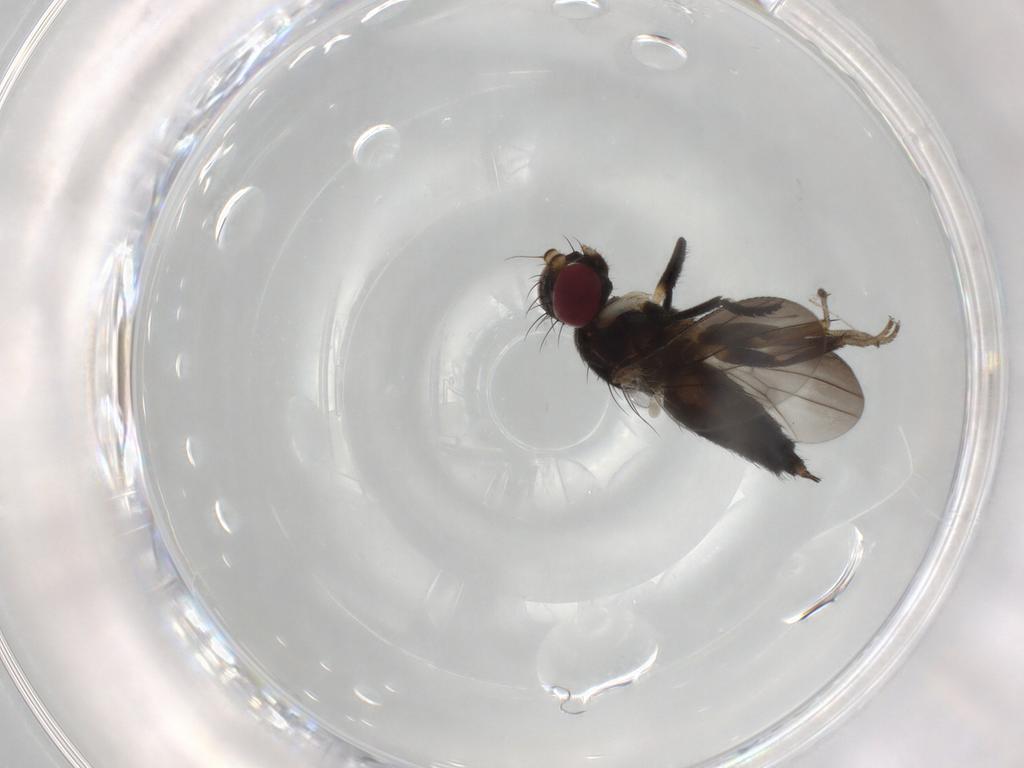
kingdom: Animalia
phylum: Arthropoda
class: Insecta
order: Diptera
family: Clusiidae
